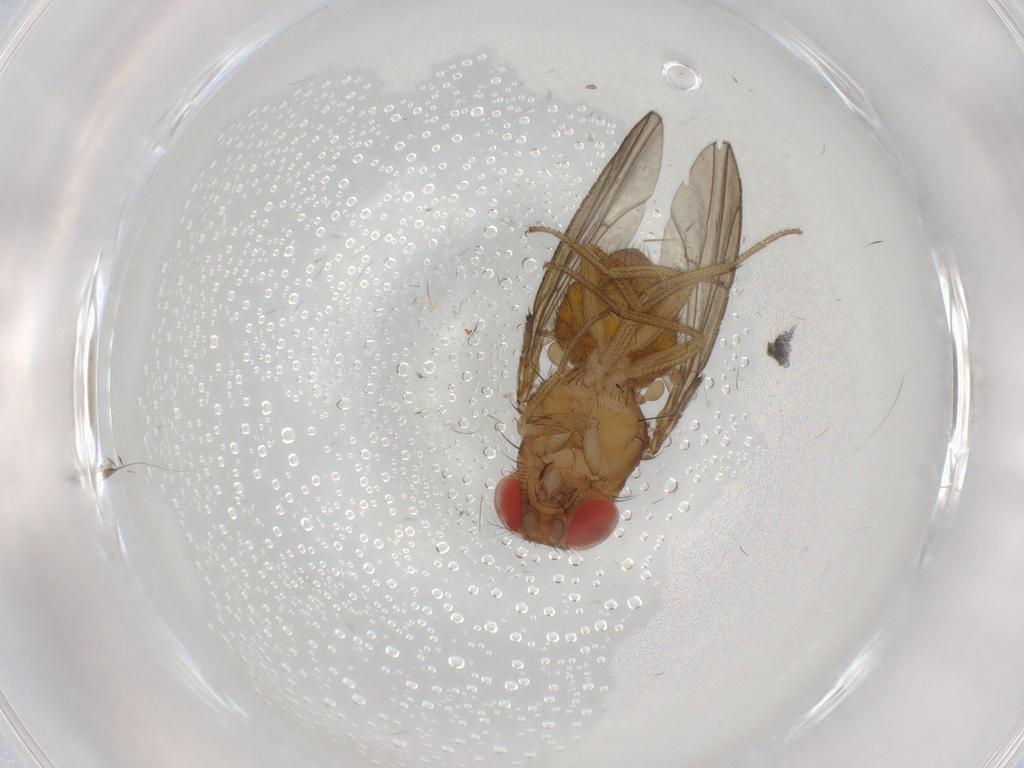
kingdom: Animalia
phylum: Arthropoda
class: Insecta
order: Diptera
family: Drosophilidae
